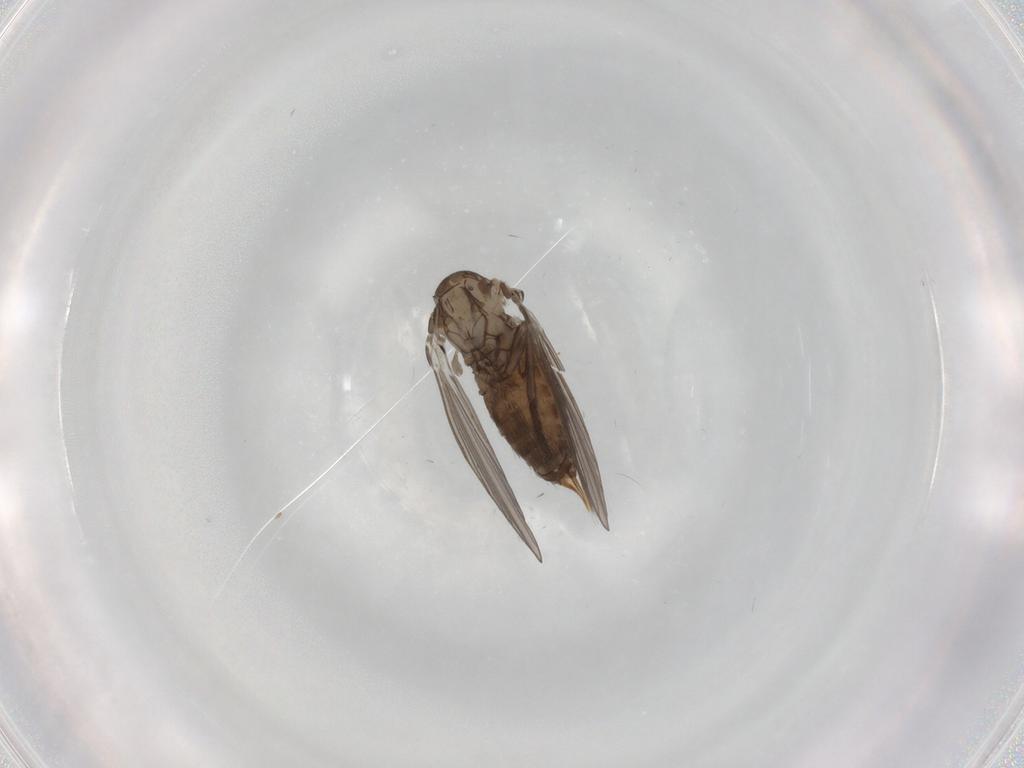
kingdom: Animalia
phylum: Arthropoda
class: Insecta
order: Diptera
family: Psychodidae
